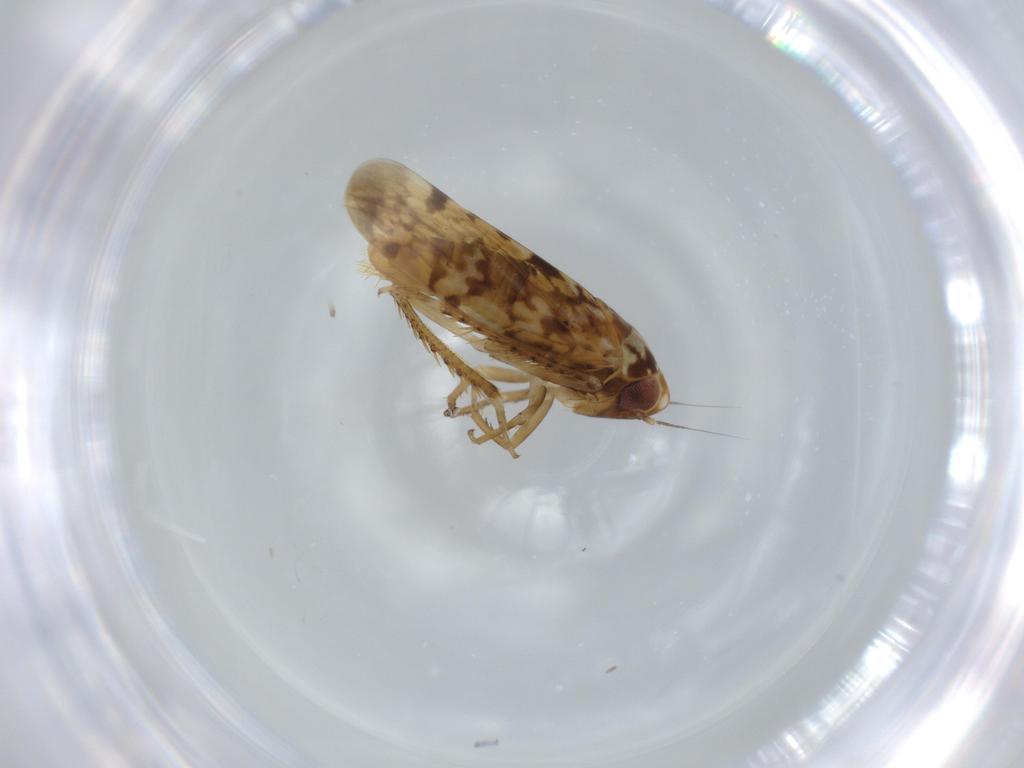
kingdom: Animalia
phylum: Arthropoda
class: Insecta
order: Hemiptera
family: Cicadellidae
